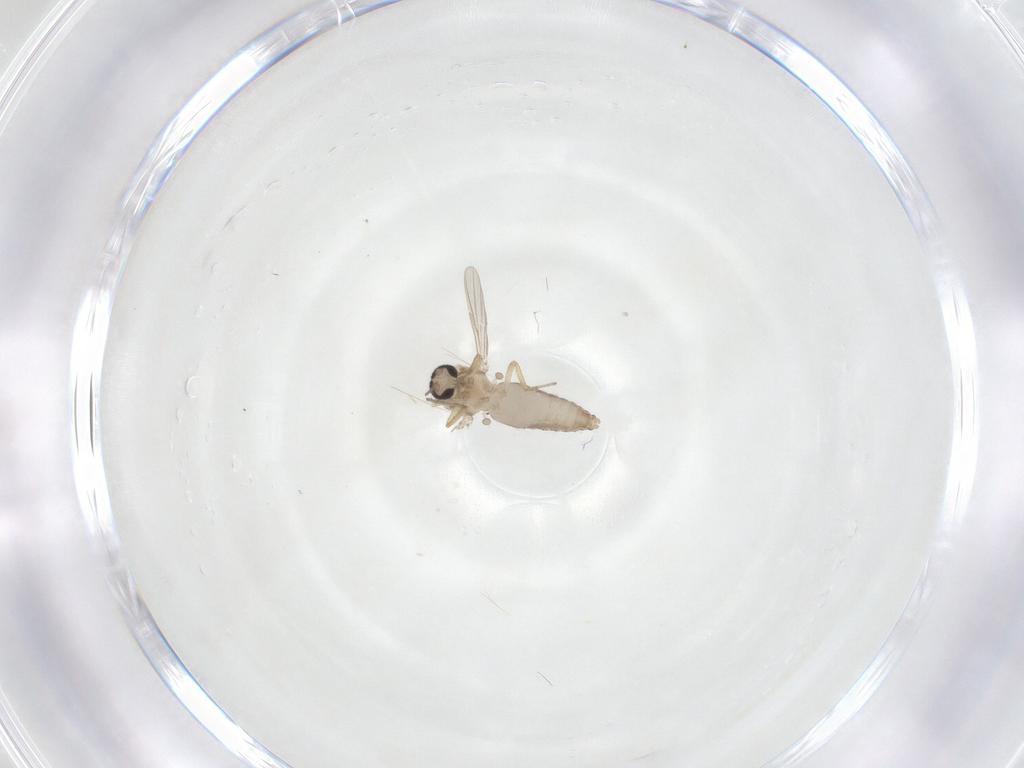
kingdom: Animalia
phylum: Arthropoda
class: Insecta
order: Diptera
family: Ceratopogonidae
